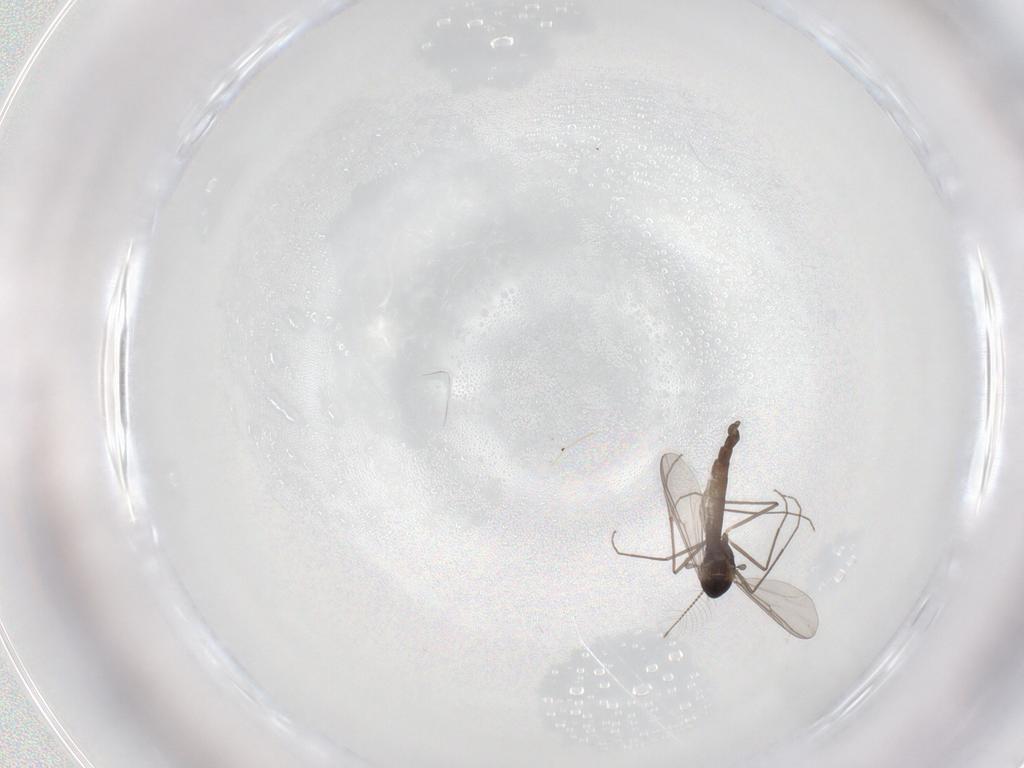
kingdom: Animalia
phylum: Arthropoda
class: Insecta
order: Diptera
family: Chironomidae
